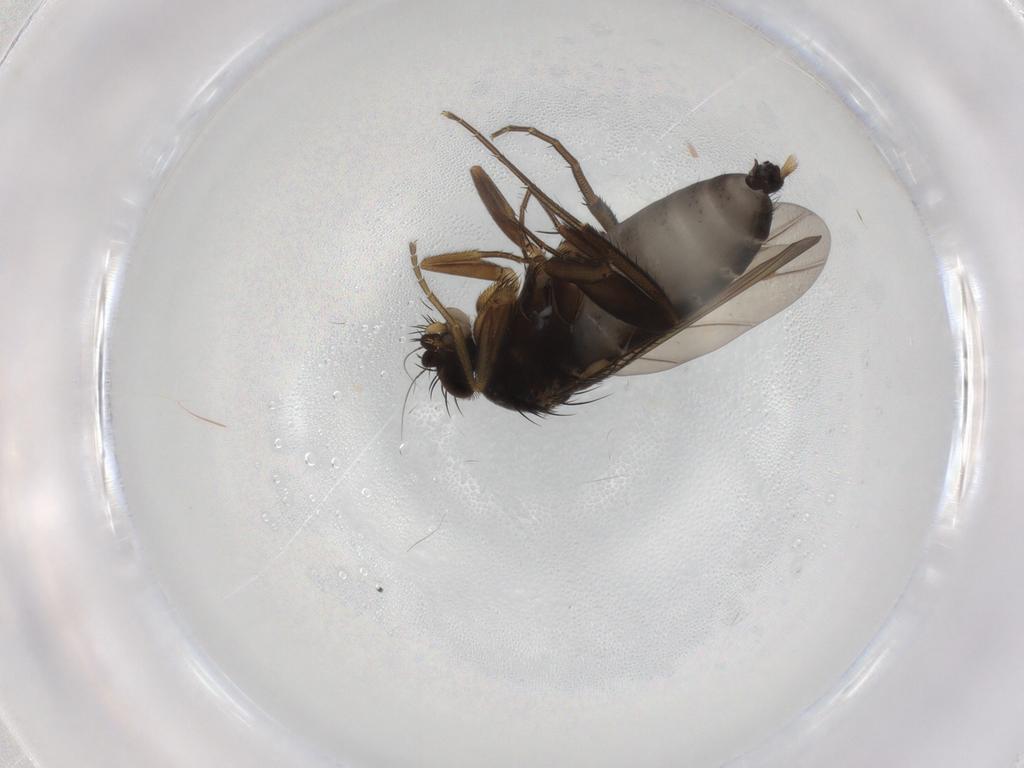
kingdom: Animalia
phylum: Arthropoda
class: Insecta
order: Diptera
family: Phoridae
